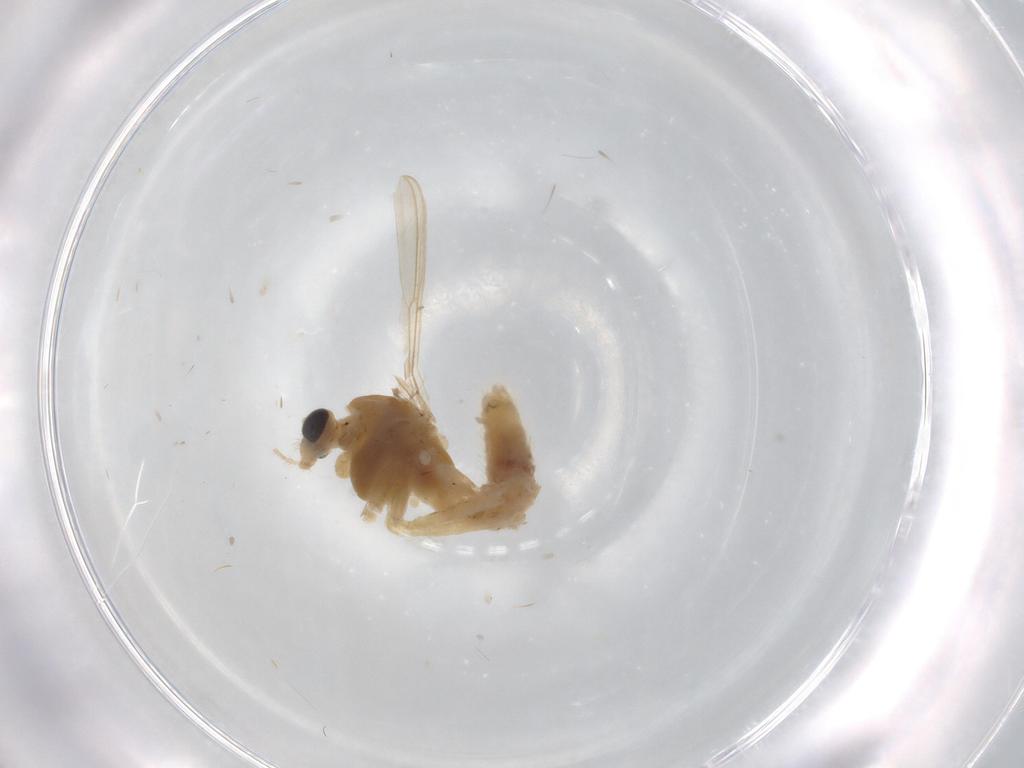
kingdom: Animalia
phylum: Arthropoda
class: Insecta
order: Diptera
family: Chironomidae
